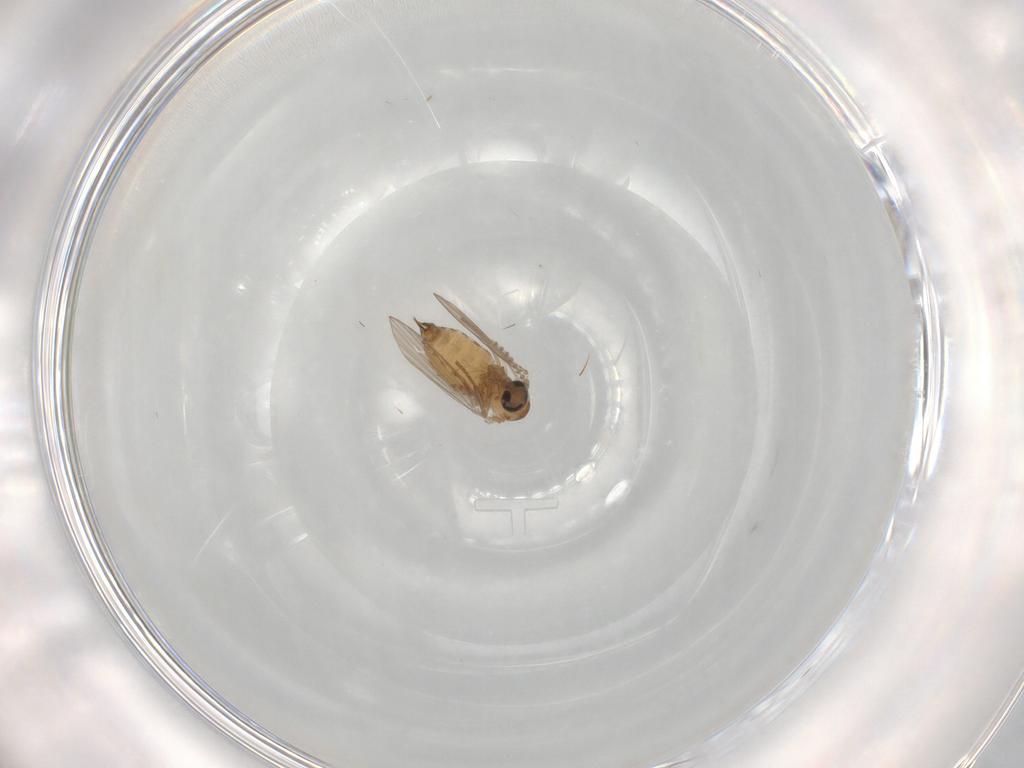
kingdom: Animalia
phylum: Arthropoda
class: Insecta
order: Diptera
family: Psychodidae
